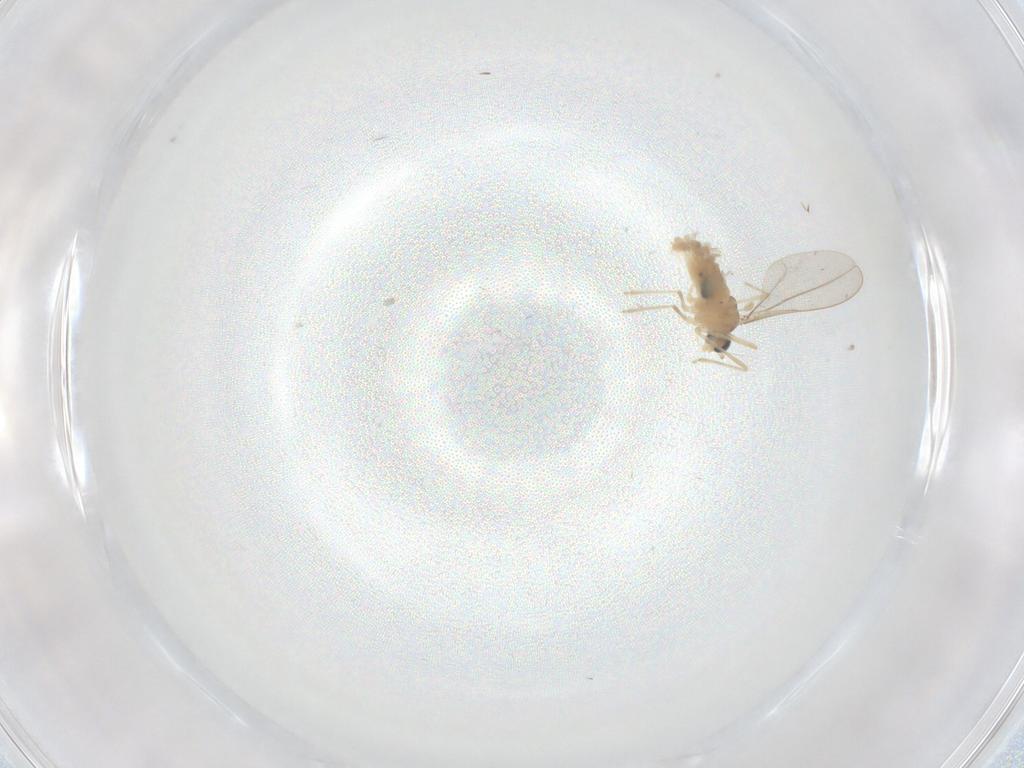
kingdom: Animalia
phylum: Arthropoda
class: Insecta
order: Diptera
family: Cecidomyiidae
